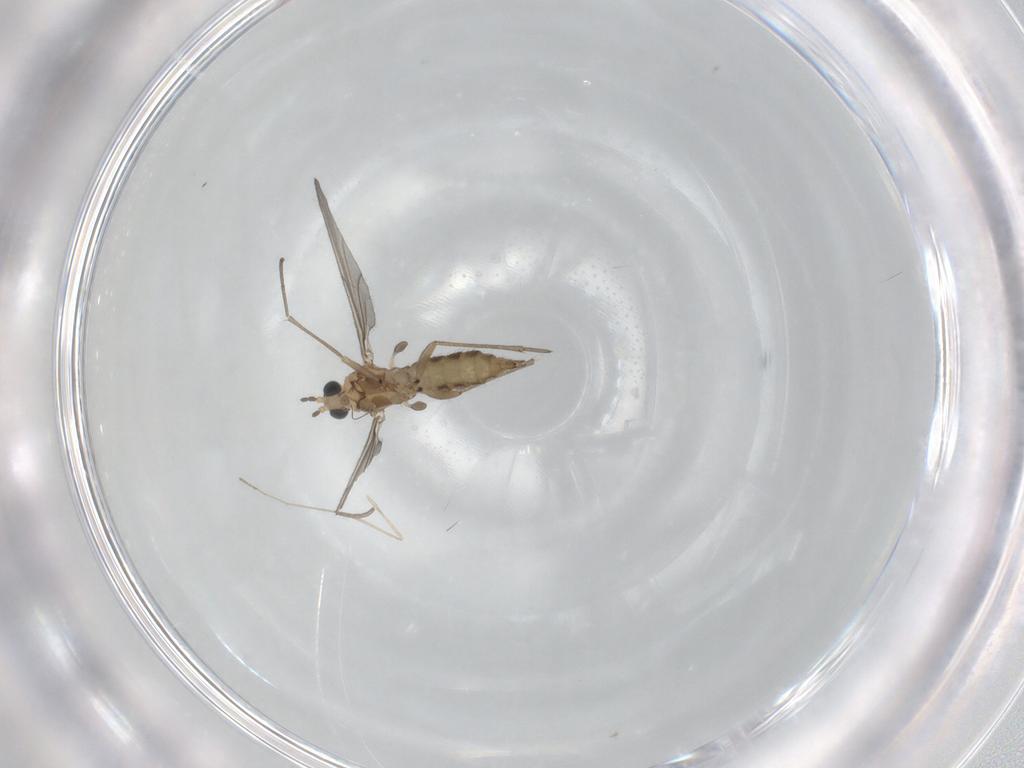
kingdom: Animalia
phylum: Arthropoda
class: Insecta
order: Diptera
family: Sciaridae
